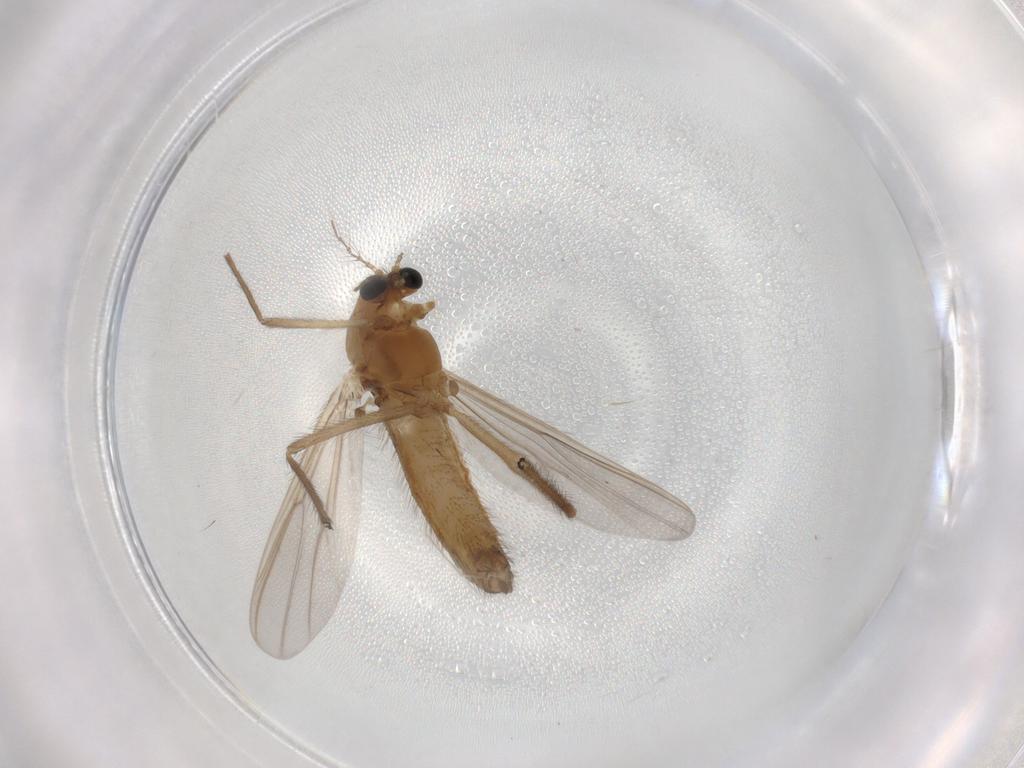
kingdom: Animalia
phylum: Arthropoda
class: Insecta
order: Diptera
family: Chironomidae
